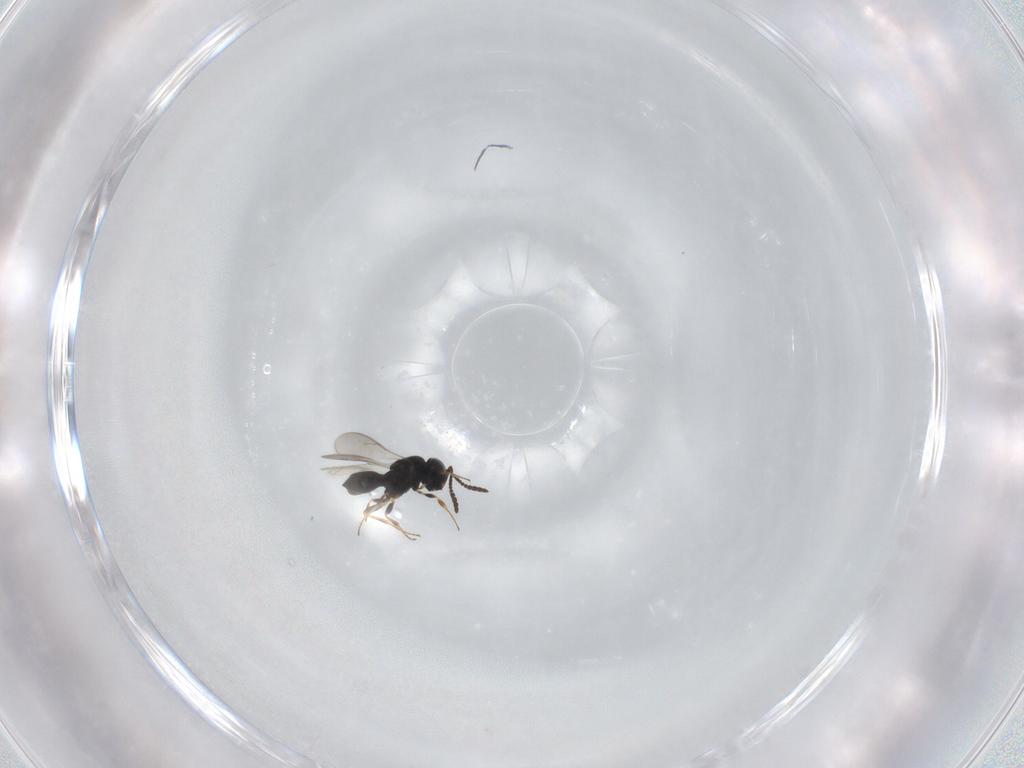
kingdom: Animalia
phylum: Arthropoda
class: Insecta
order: Hymenoptera
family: Scelionidae
